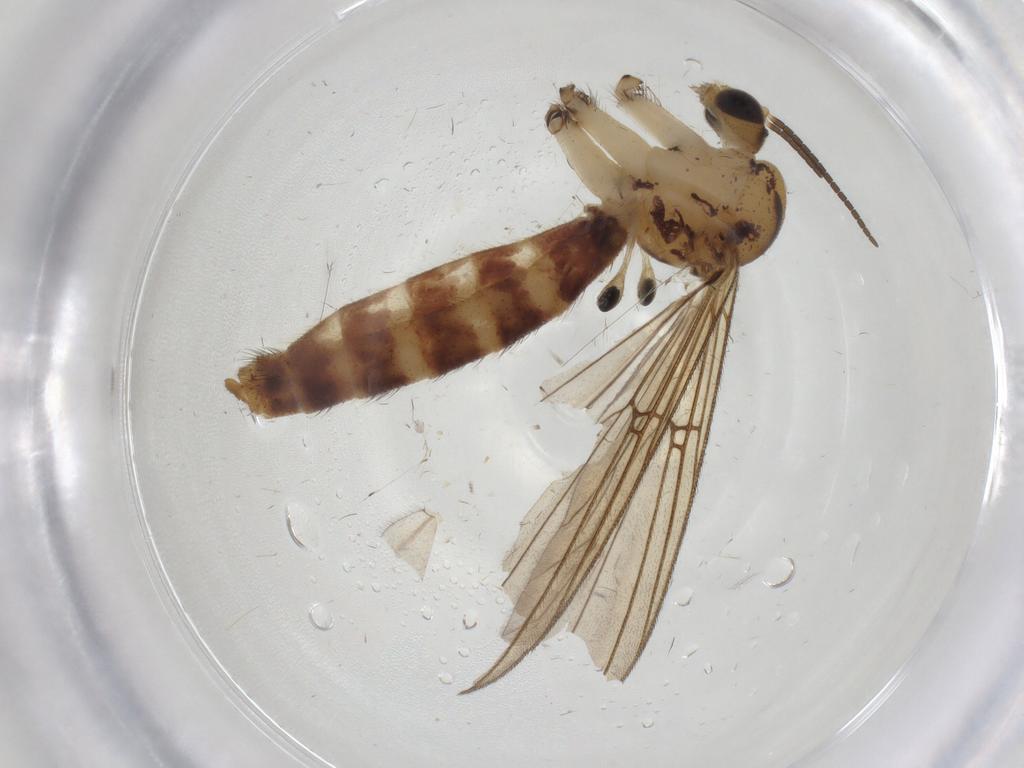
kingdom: Animalia
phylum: Arthropoda
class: Insecta
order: Diptera
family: Mycetophilidae
